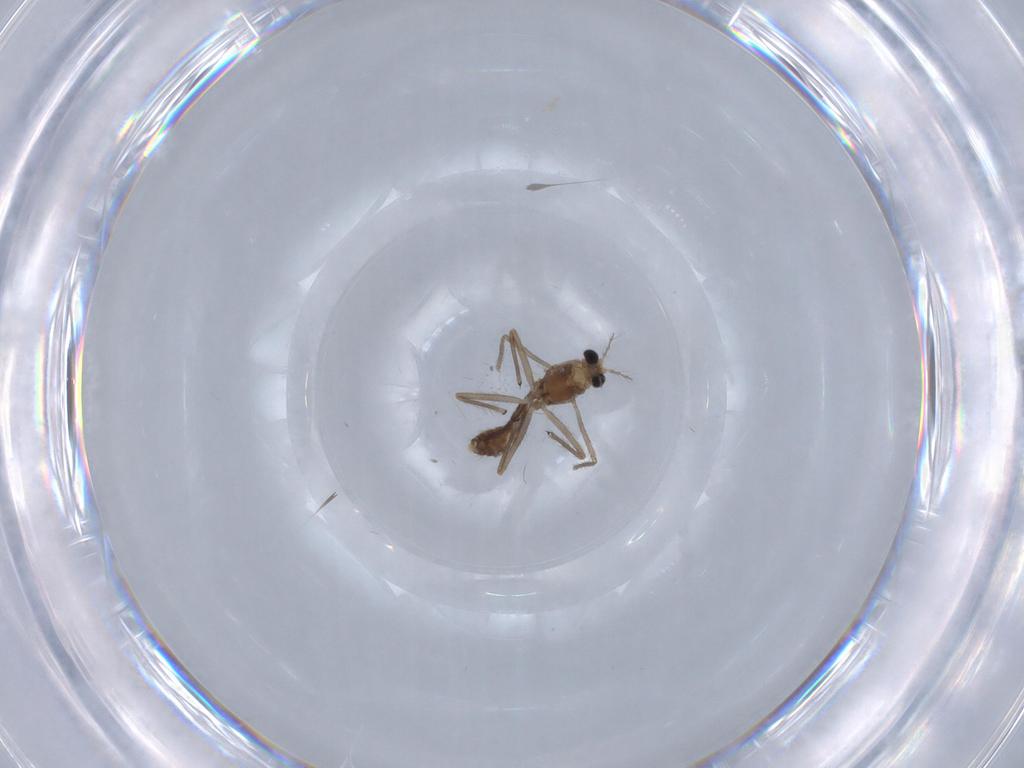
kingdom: Animalia
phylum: Arthropoda
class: Insecta
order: Diptera
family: Chironomidae
